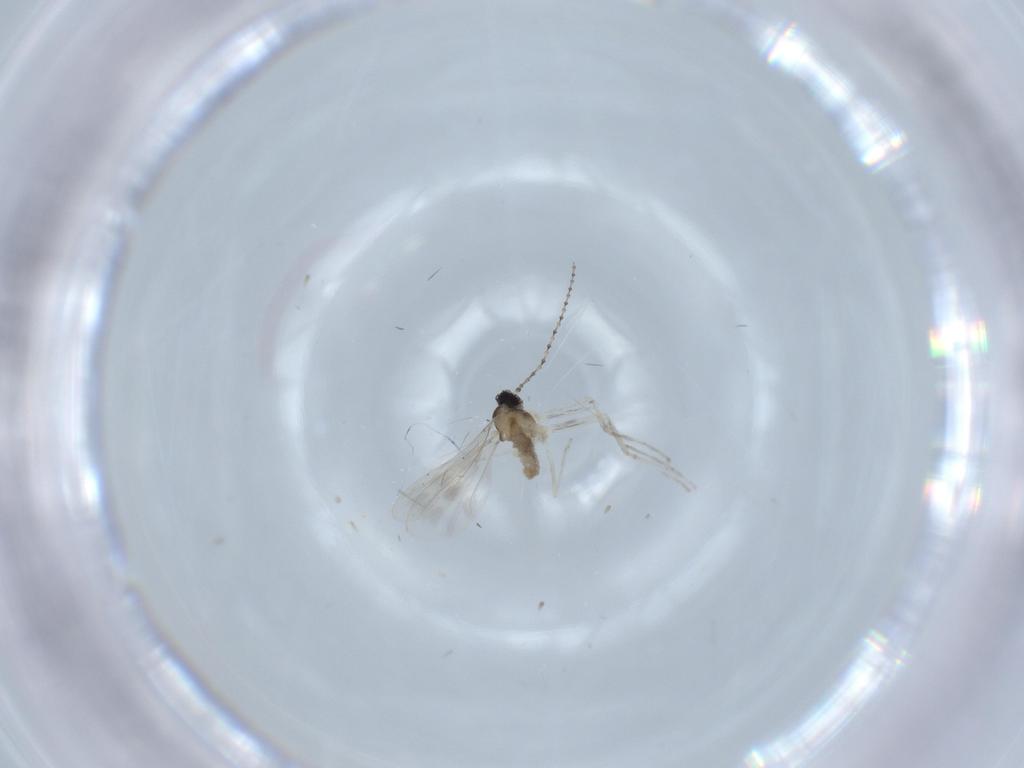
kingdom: Animalia
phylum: Arthropoda
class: Insecta
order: Diptera
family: Cecidomyiidae
